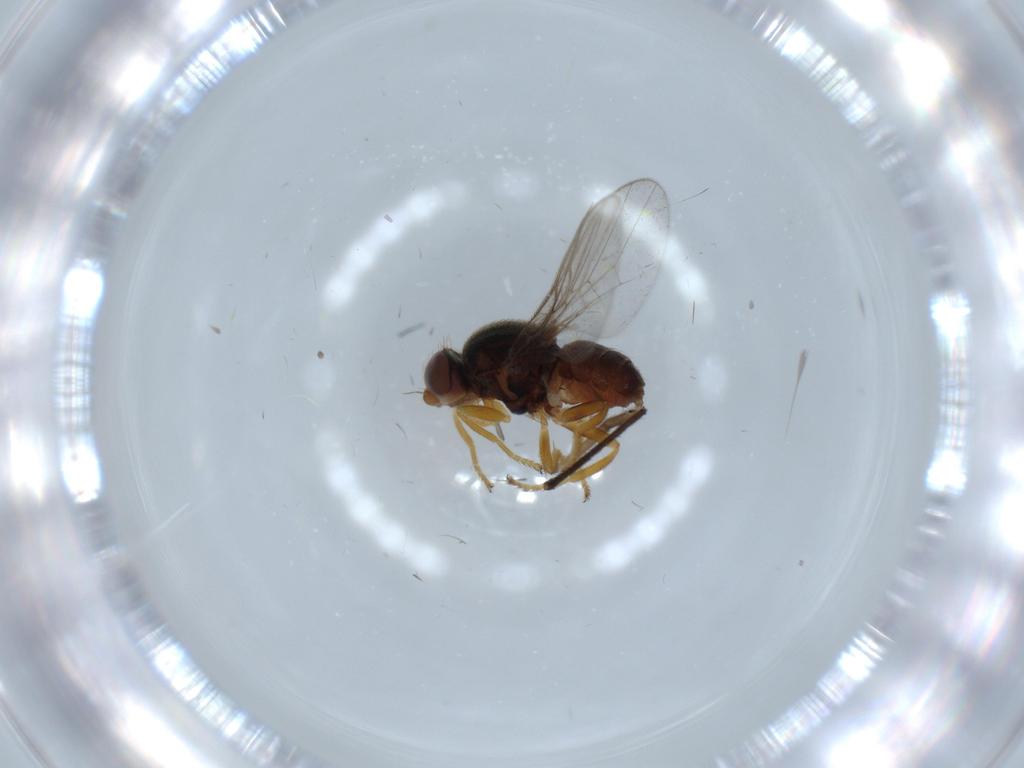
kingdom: Animalia
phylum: Arthropoda
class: Insecta
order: Diptera
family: Chloropidae
